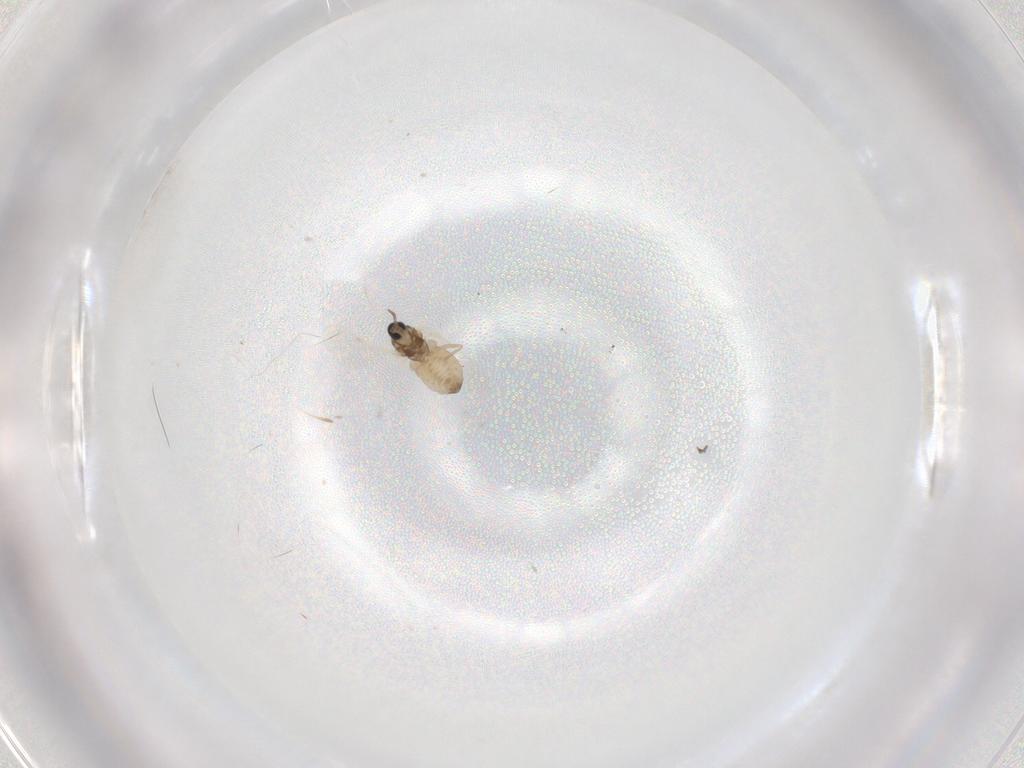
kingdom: Animalia
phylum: Arthropoda
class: Insecta
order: Diptera
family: Cecidomyiidae
